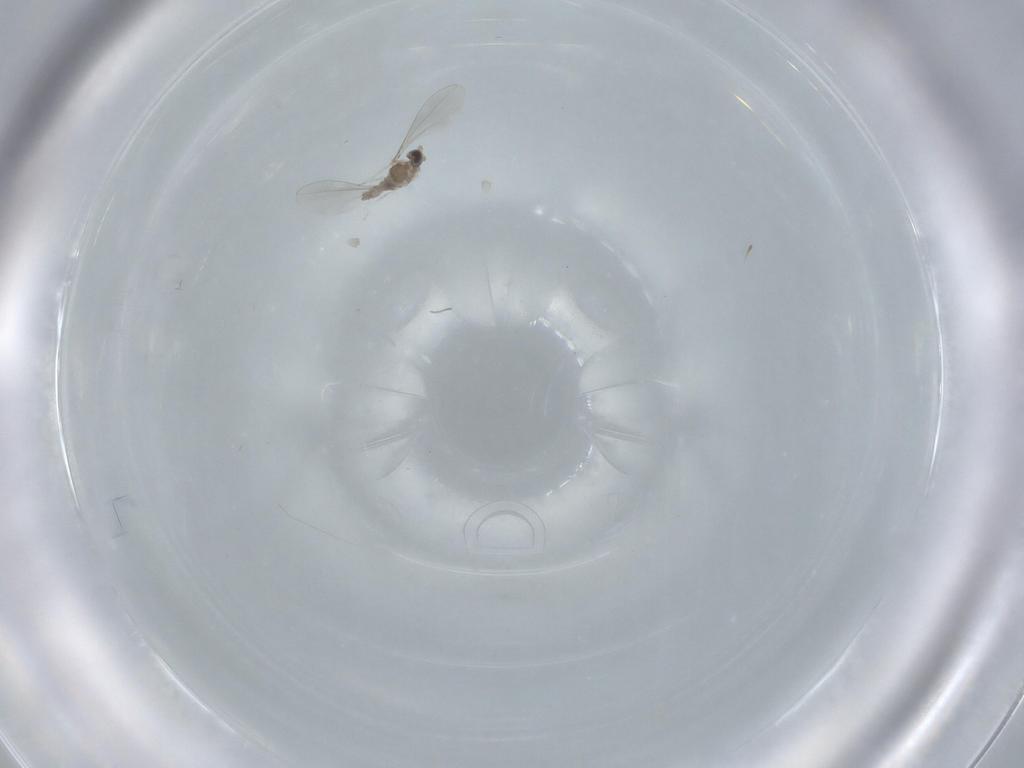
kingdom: Animalia
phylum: Arthropoda
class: Insecta
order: Diptera
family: Cecidomyiidae
